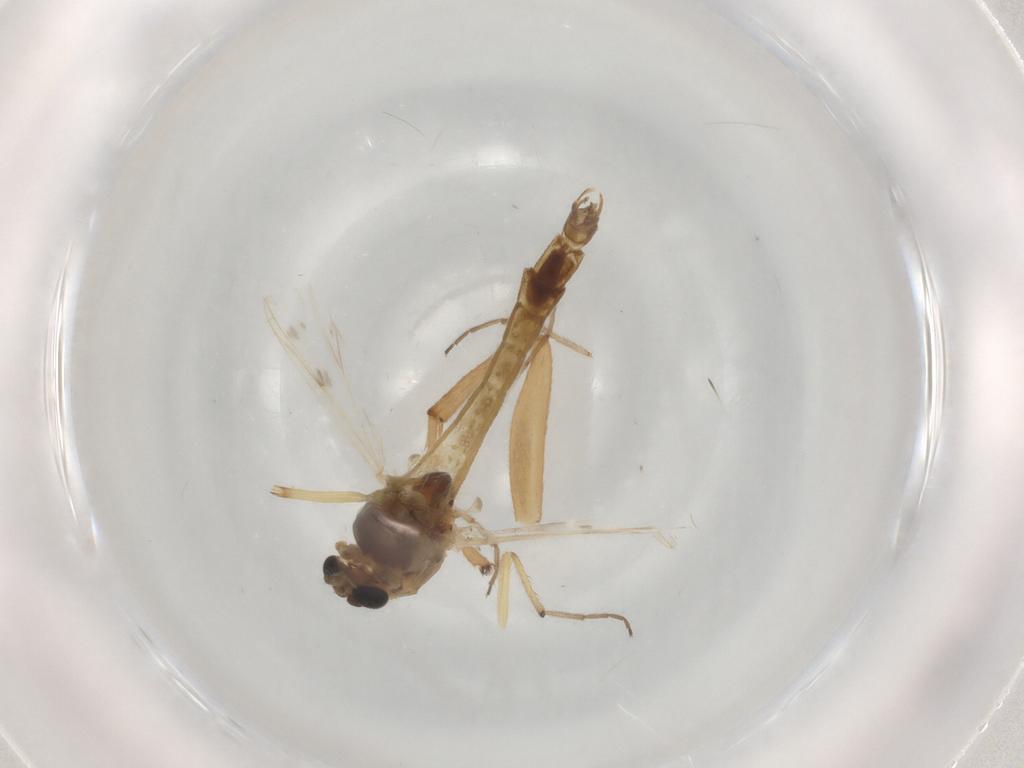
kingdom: Animalia
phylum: Arthropoda
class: Insecta
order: Diptera
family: Chironomidae
